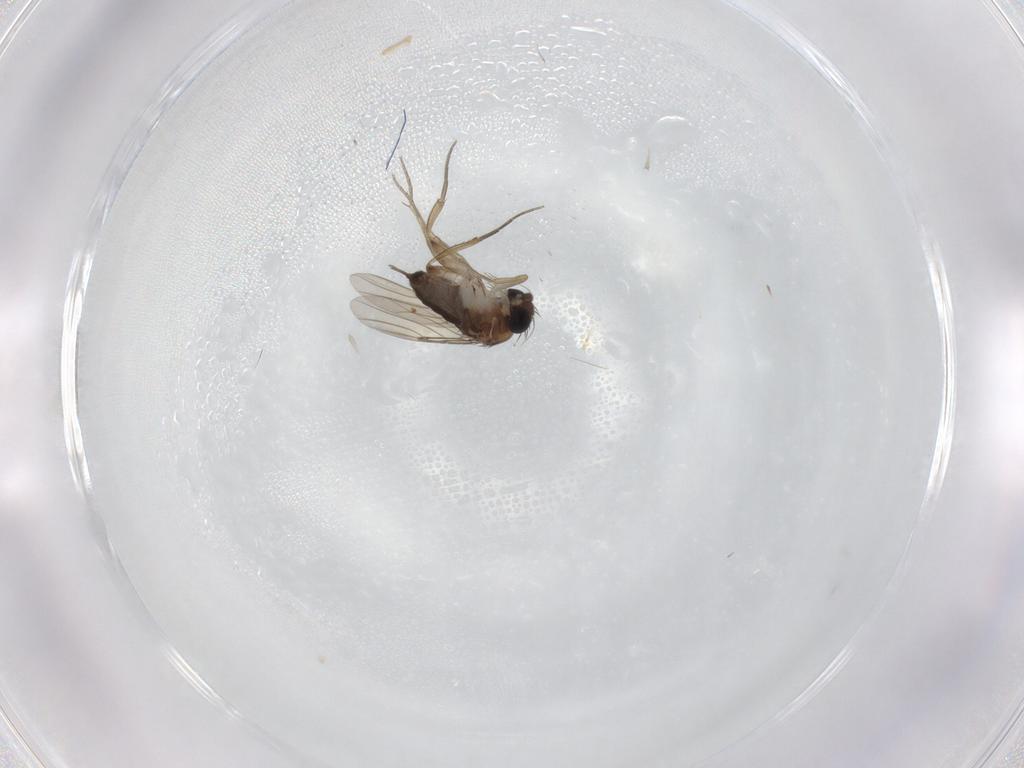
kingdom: Animalia
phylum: Arthropoda
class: Insecta
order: Diptera
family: Phoridae
